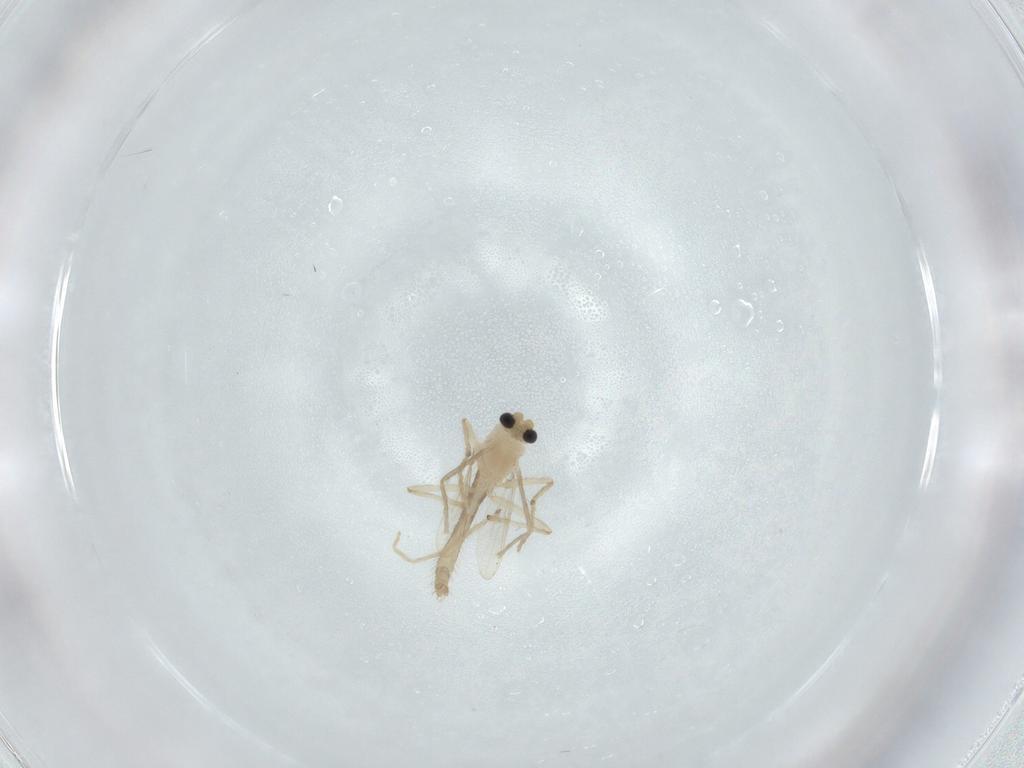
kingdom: Animalia
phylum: Arthropoda
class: Insecta
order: Diptera
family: Chironomidae
